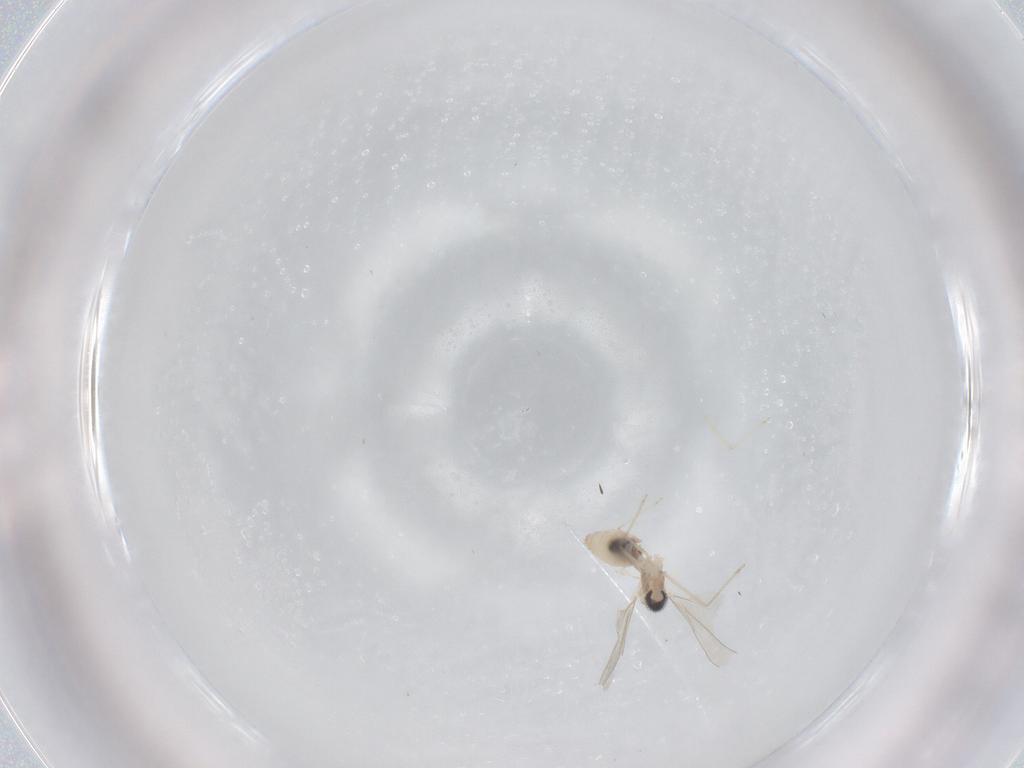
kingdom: Animalia
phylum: Arthropoda
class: Insecta
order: Diptera
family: Cecidomyiidae
